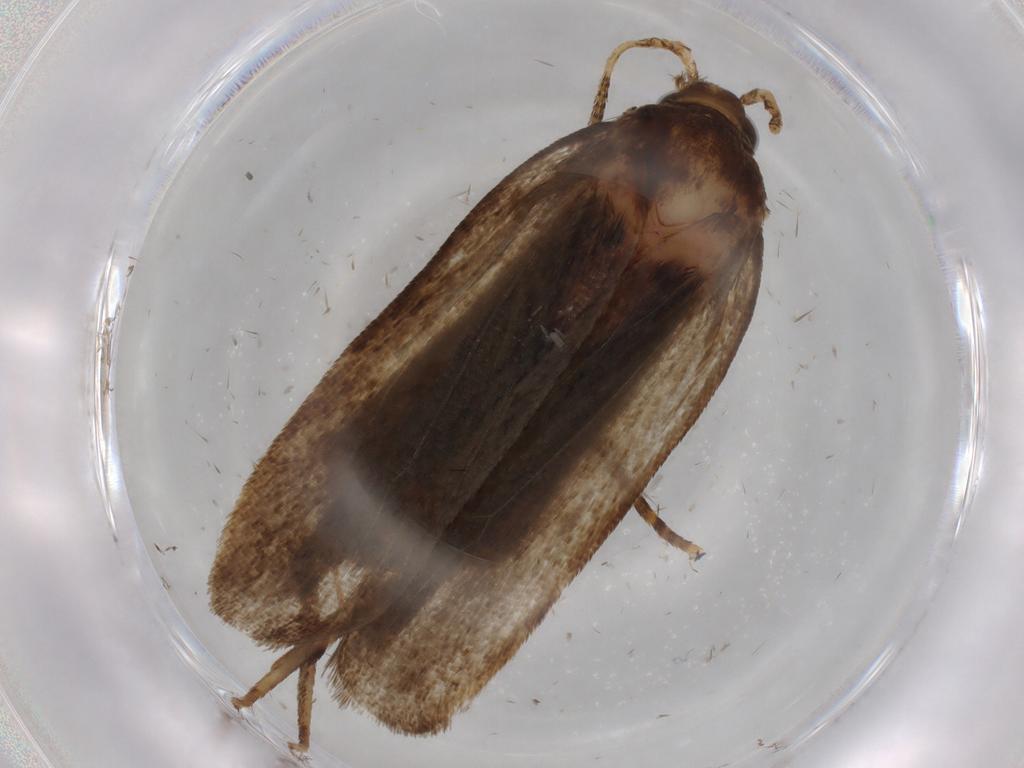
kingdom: Animalia
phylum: Arthropoda
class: Insecta
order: Lepidoptera
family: Autostichidae
